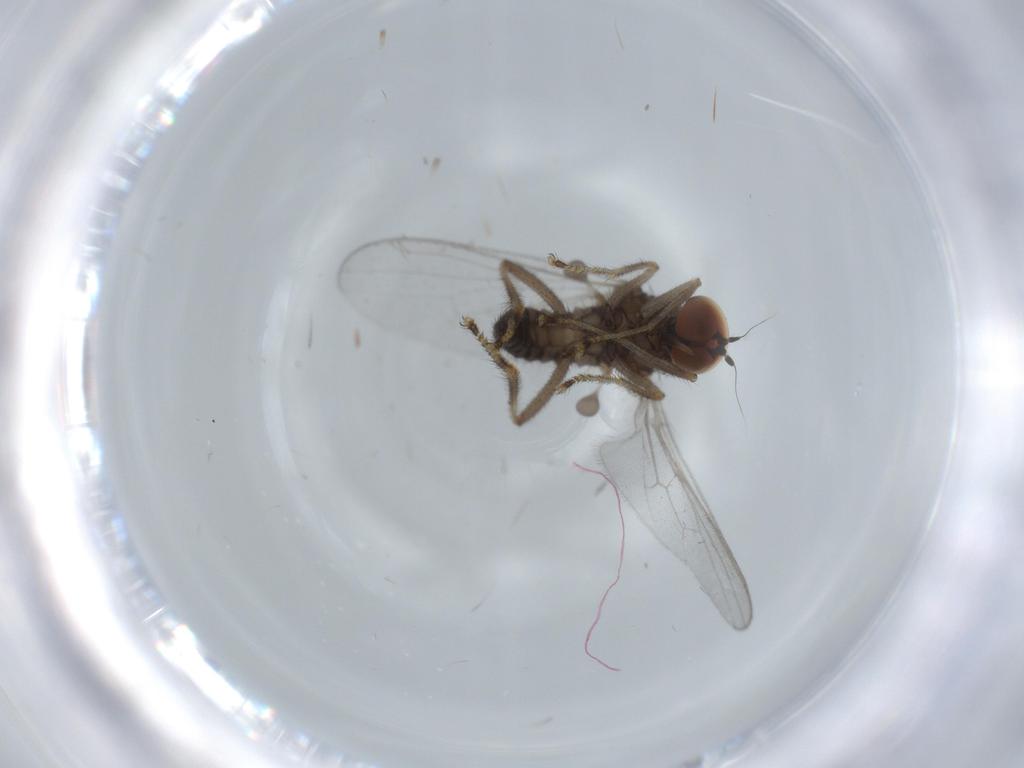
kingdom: Animalia
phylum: Arthropoda
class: Insecta
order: Diptera
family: Hybotidae
